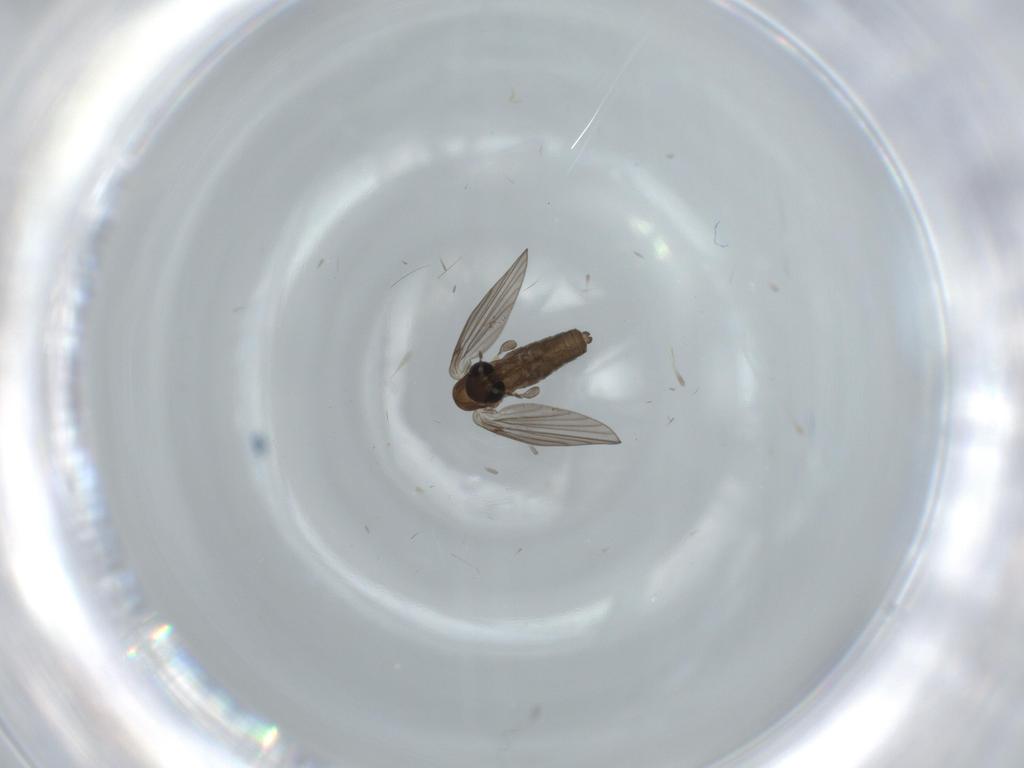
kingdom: Animalia
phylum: Arthropoda
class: Insecta
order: Diptera
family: Psychodidae
